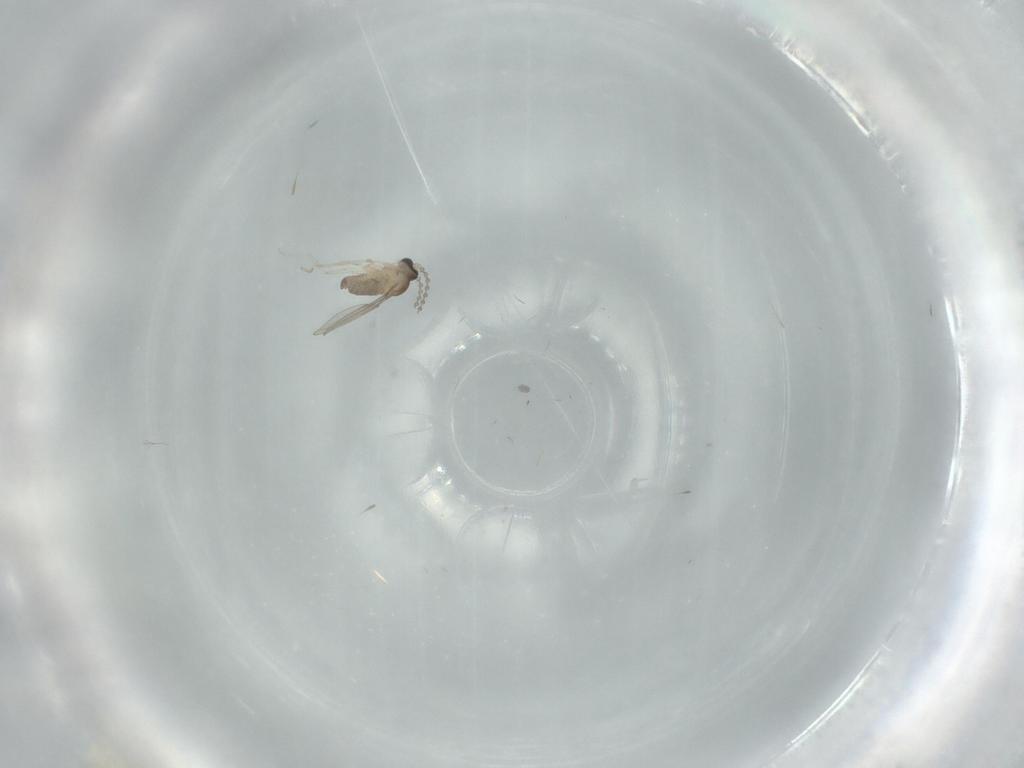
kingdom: Animalia
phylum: Arthropoda
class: Insecta
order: Diptera
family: Cecidomyiidae
